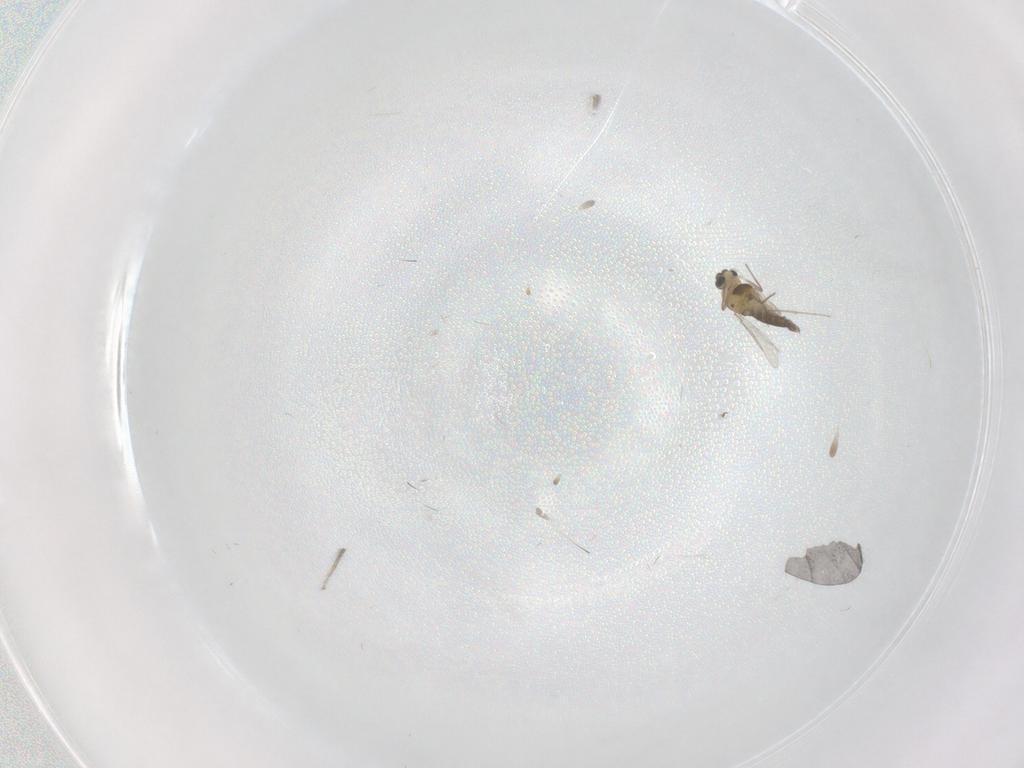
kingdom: Animalia
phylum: Arthropoda
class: Insecta
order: Diptera
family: Chironomidae
